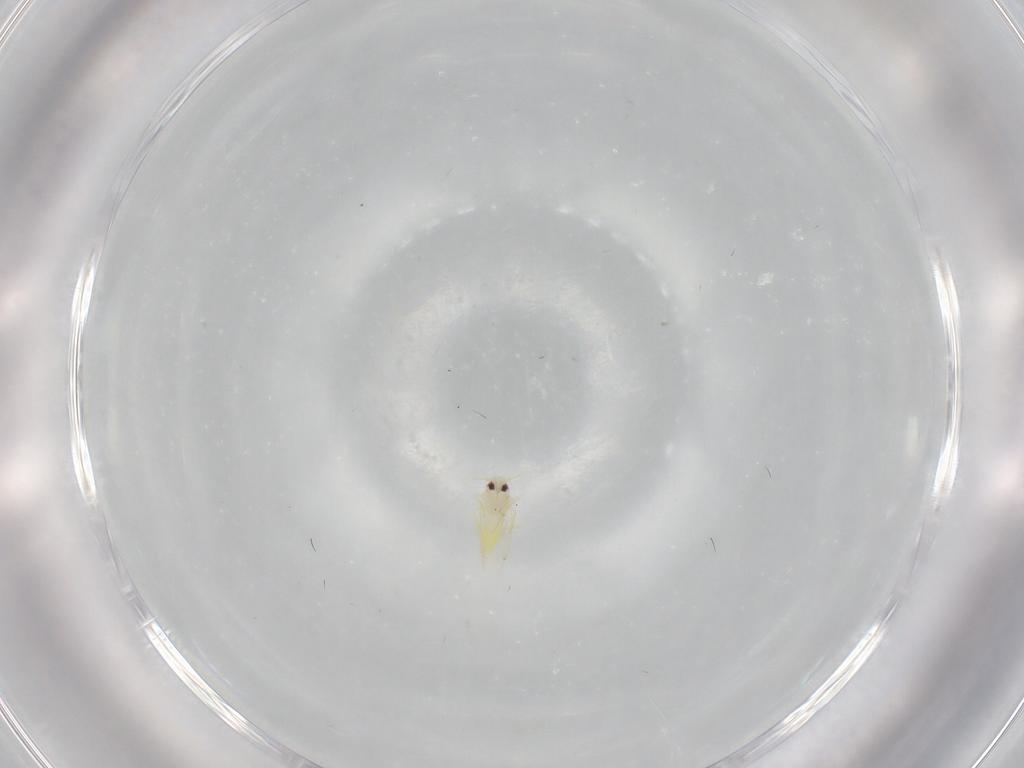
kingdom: Animalia
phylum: Arthropoda
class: Insecta
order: Hemiptera
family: Aleyrodidae
